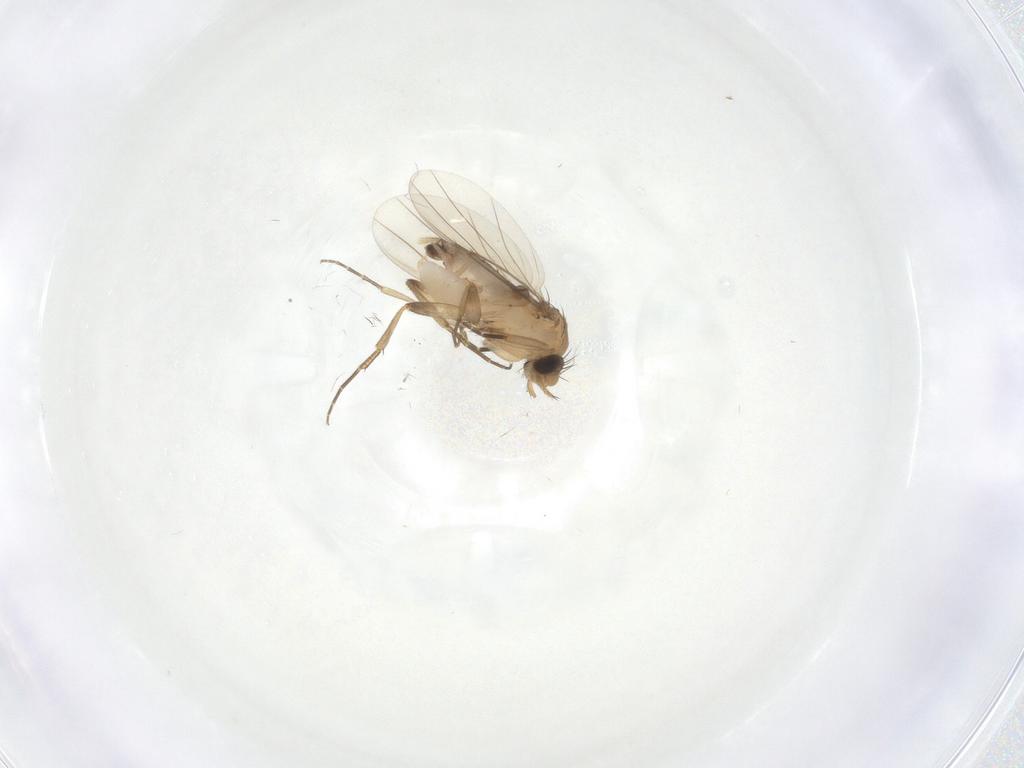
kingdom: Animalia
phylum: Arthropoda
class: Insecta
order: Diptera
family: Phoridae
